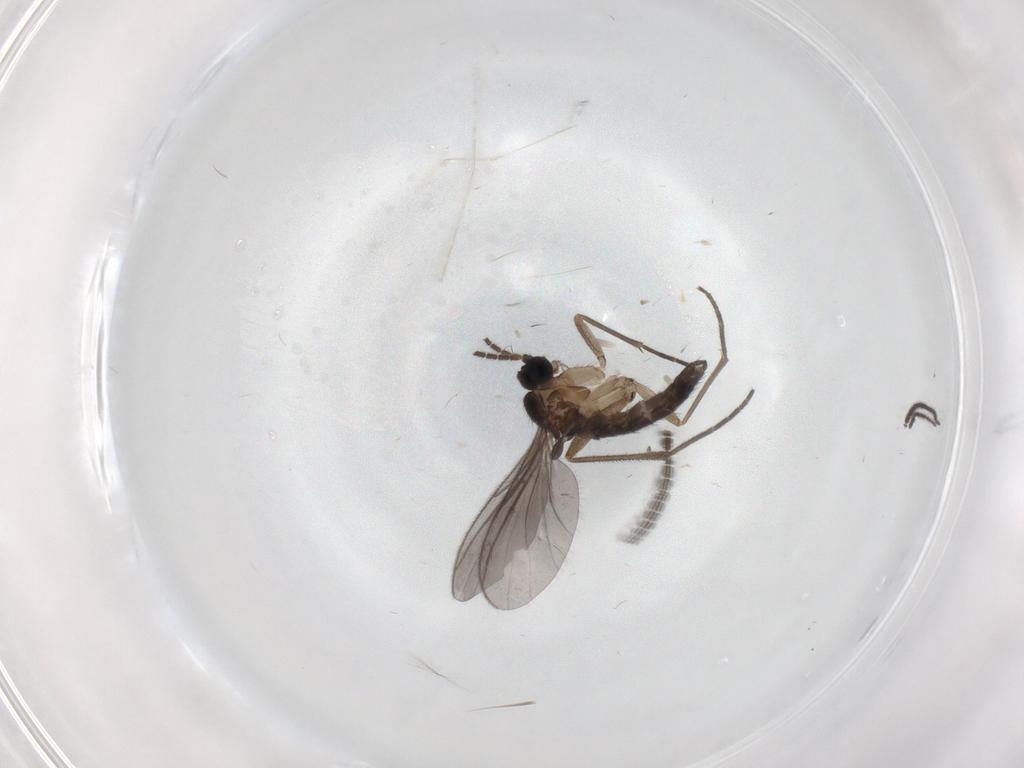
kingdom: Animalia
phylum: Arthropoda
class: Insecta
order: Diptera
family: Sciaridae
